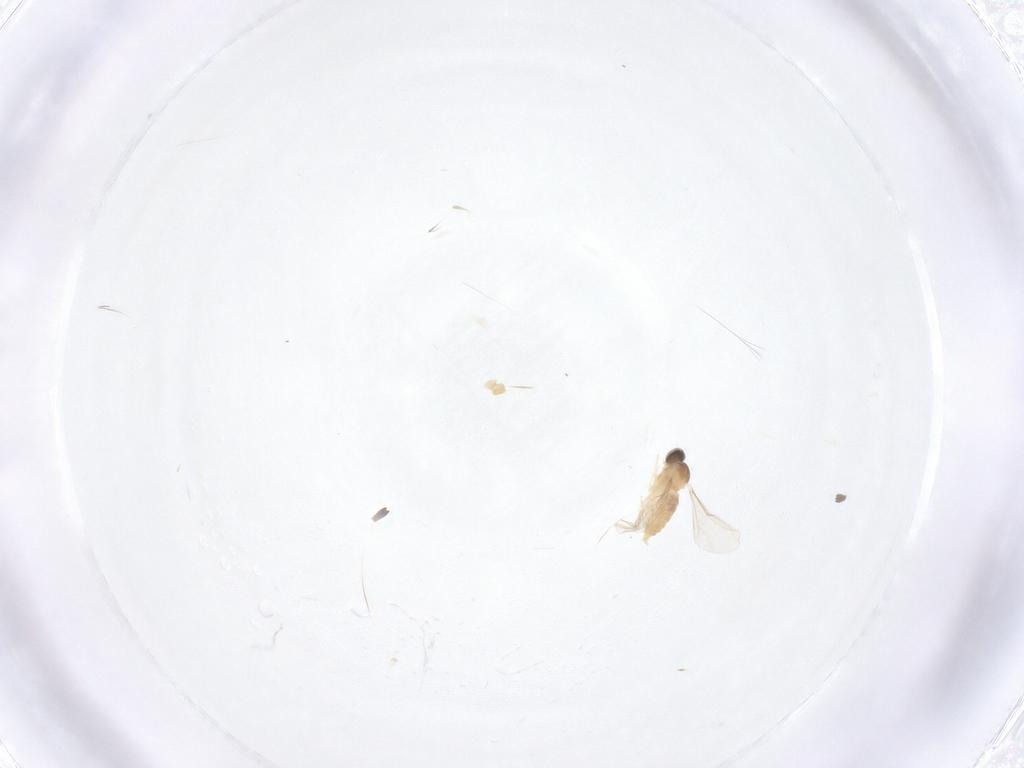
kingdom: Animalia
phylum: Arthropoda
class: Insecta
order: Diptera
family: Cecidomyiidae
